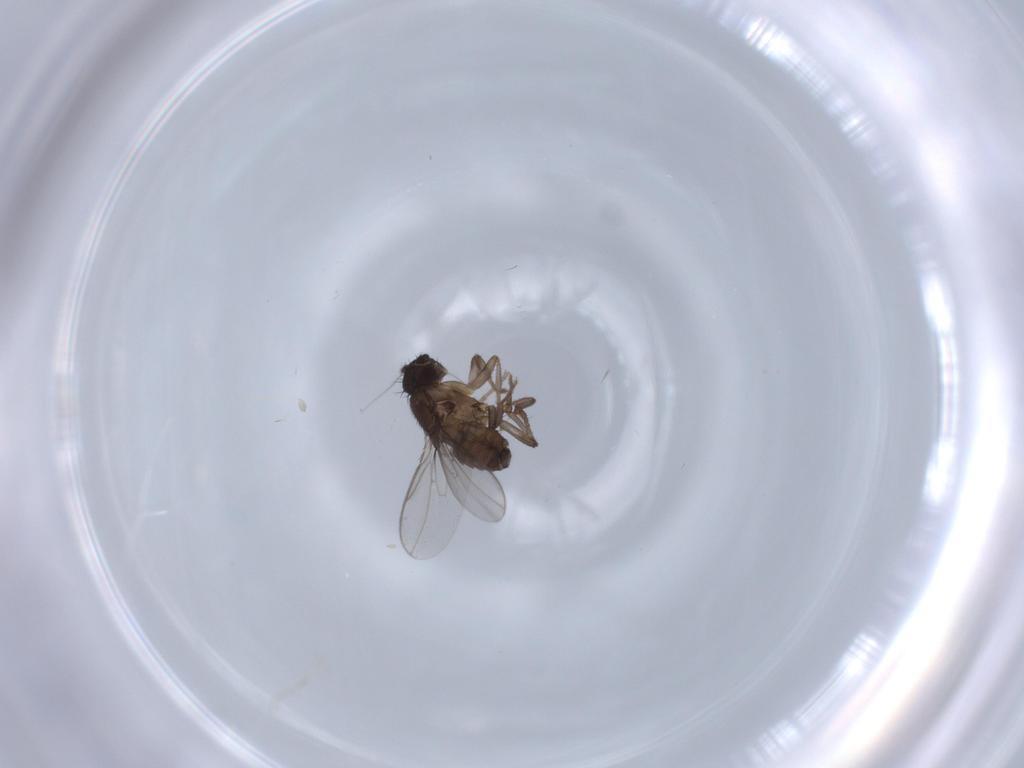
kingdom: Animalia
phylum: Arthropoda
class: Insecta
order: Diptera
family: Sphaeroceridae
